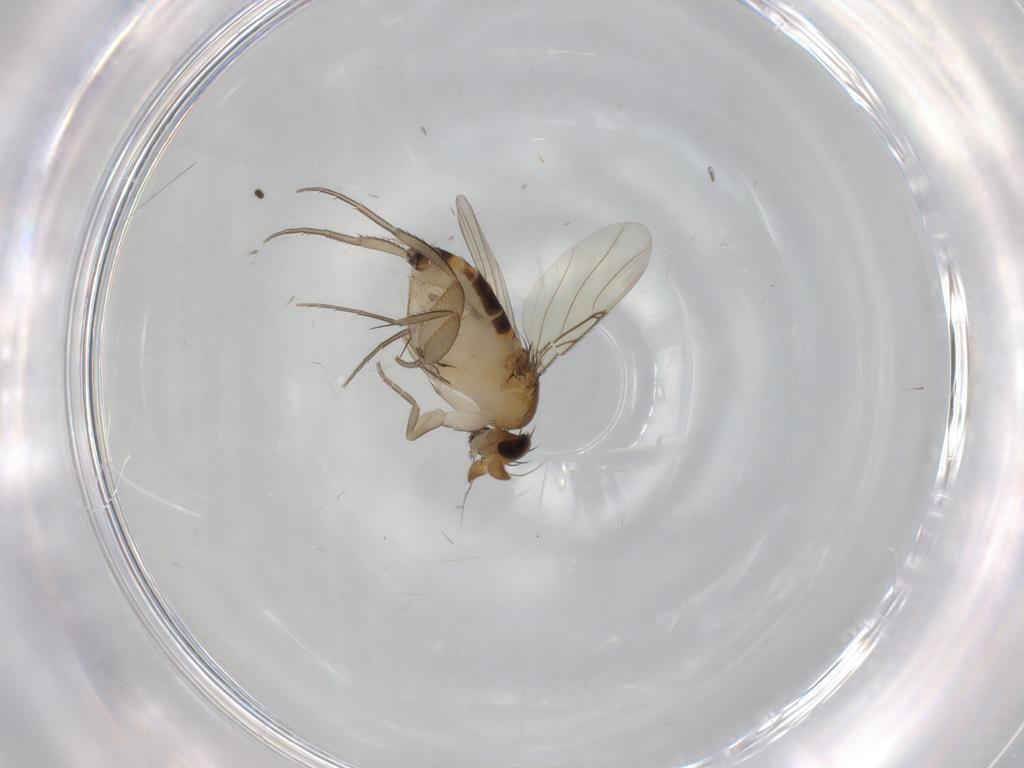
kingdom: Animalia
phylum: Arthropoda
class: Insecta
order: Diptera
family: Phoridae
